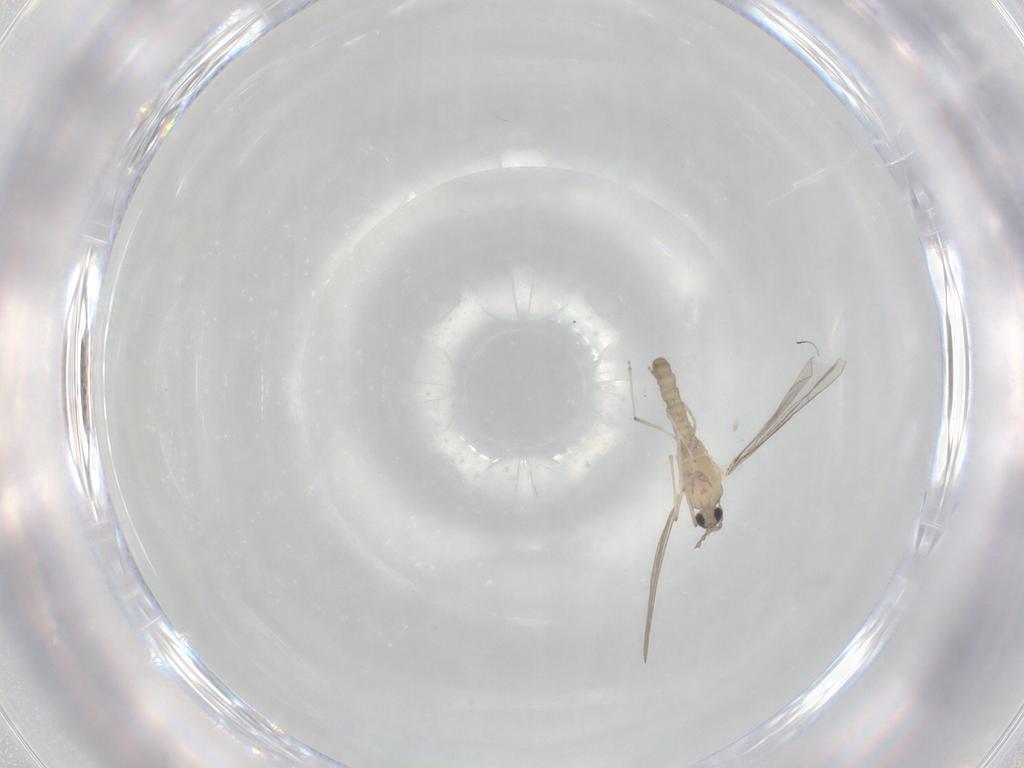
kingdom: Animalia
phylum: Arthropoda
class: Insecta
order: Diptera
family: Cecidomyiidae
